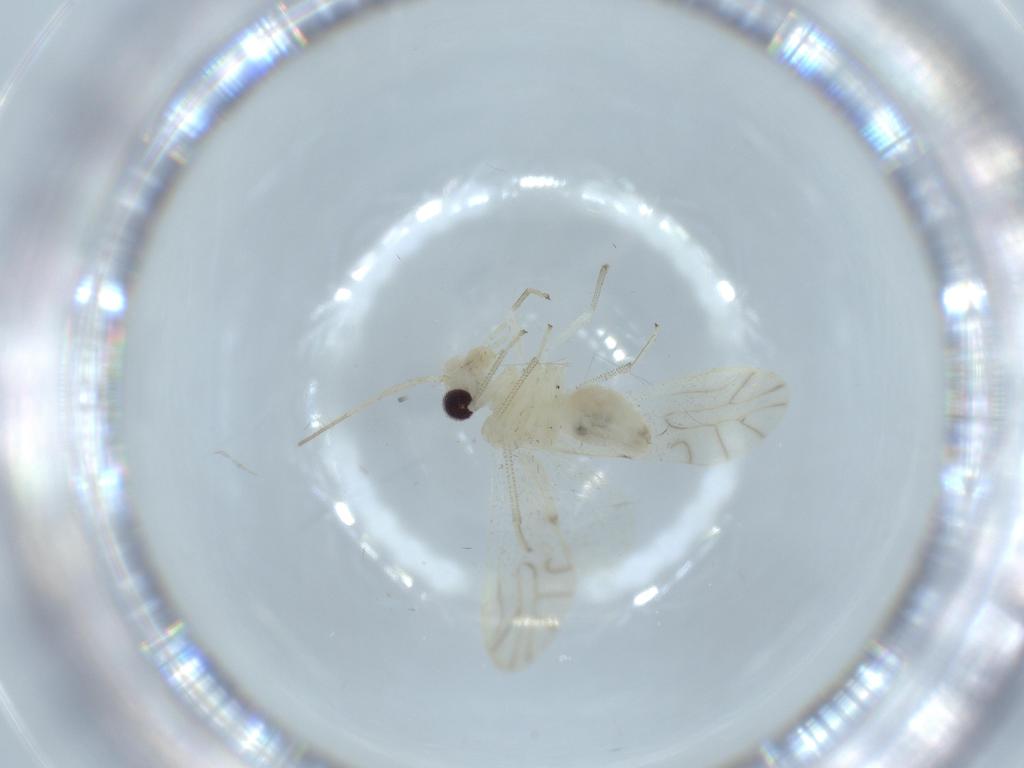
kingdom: Animalia
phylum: Arthropoda
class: Insecta
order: Psocodea
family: Caeciliusidae
